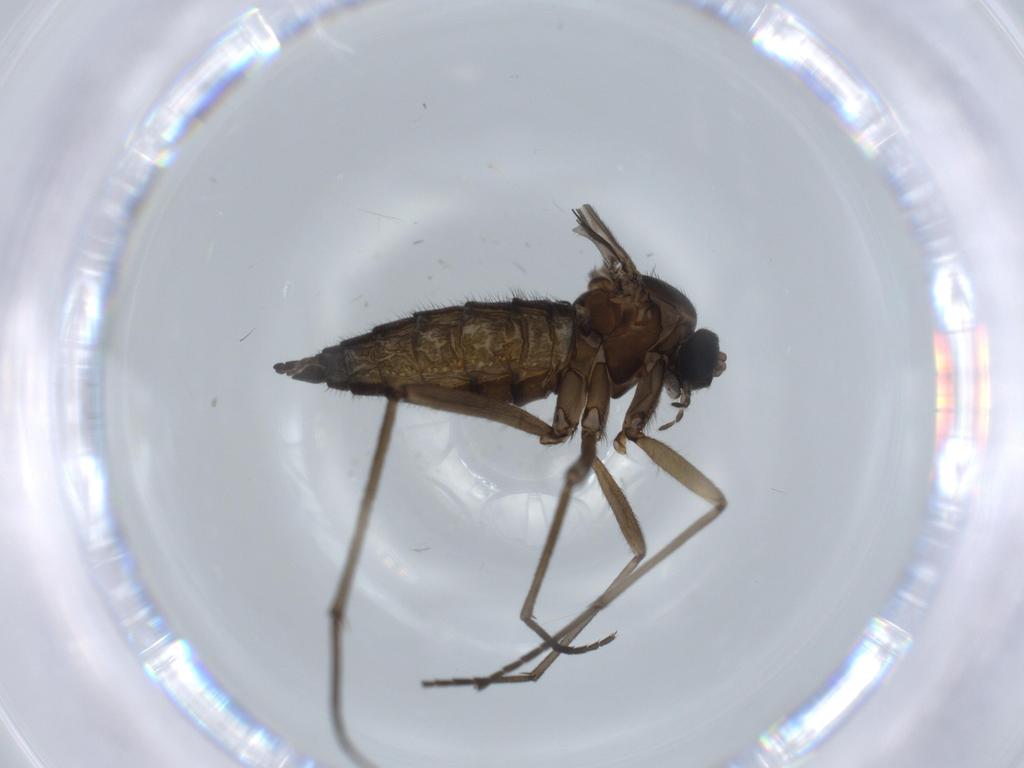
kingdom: Animalia
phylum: Arthropoda
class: Insecta
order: Diptera
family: Sciaridae
